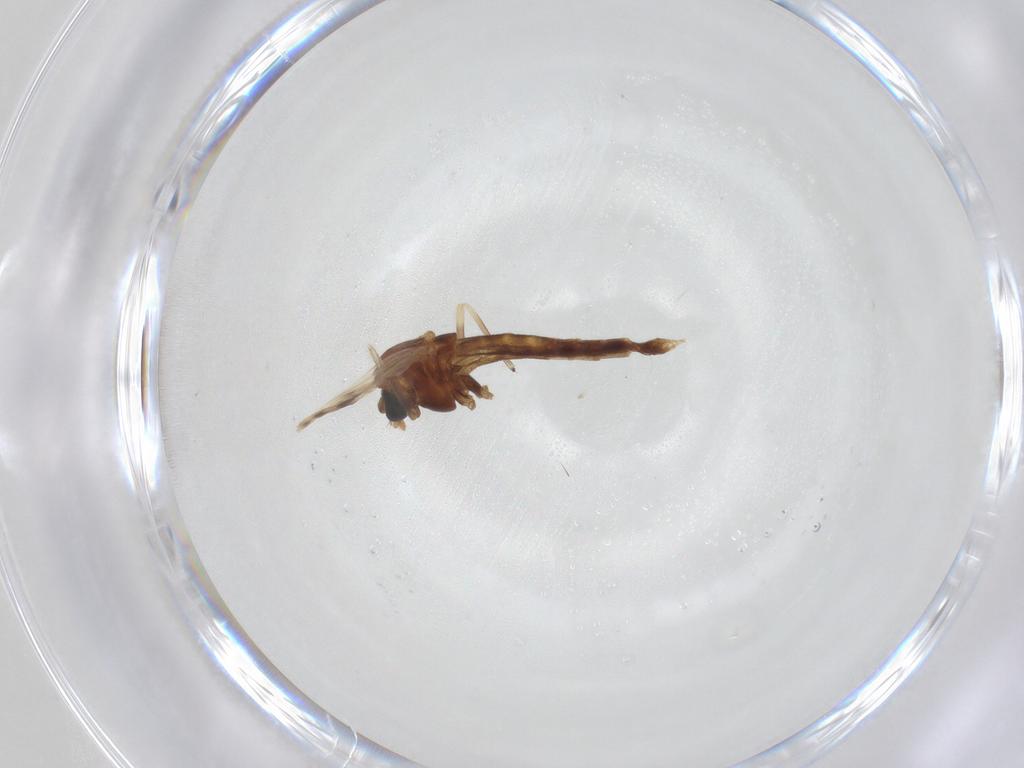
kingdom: Animalia
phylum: Arthropoda
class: Insecta
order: Diptera
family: Chironomidae
